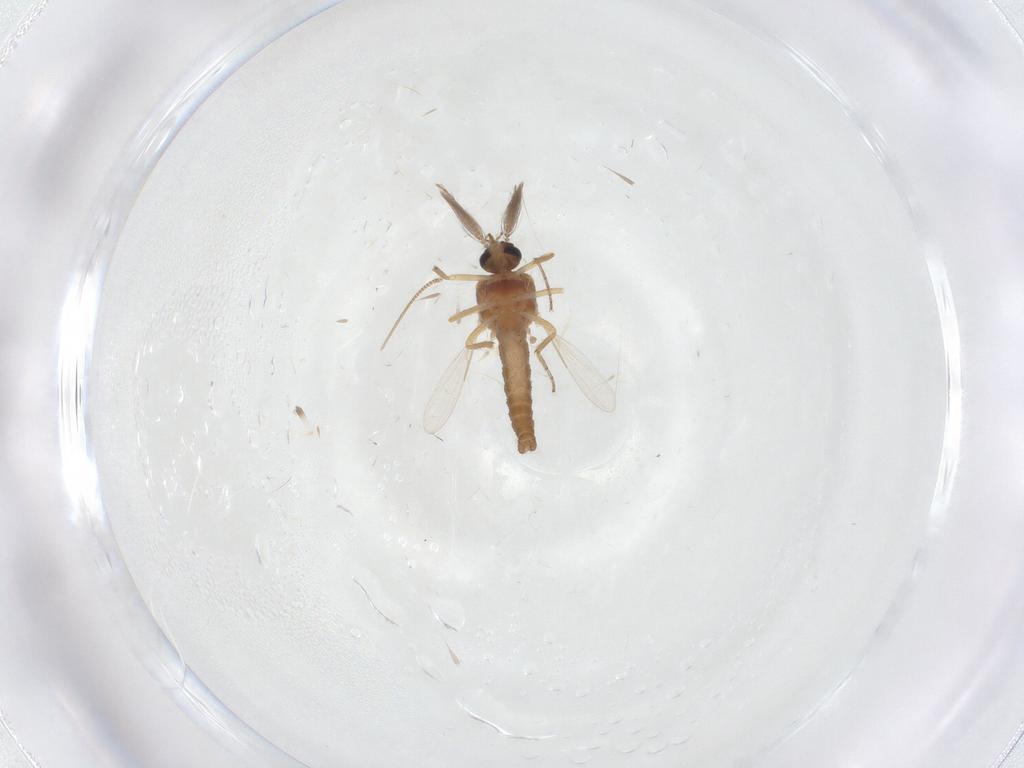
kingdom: Animalia
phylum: Arthropoda
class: Insecta
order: Diptera
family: Ceratopogonidae
